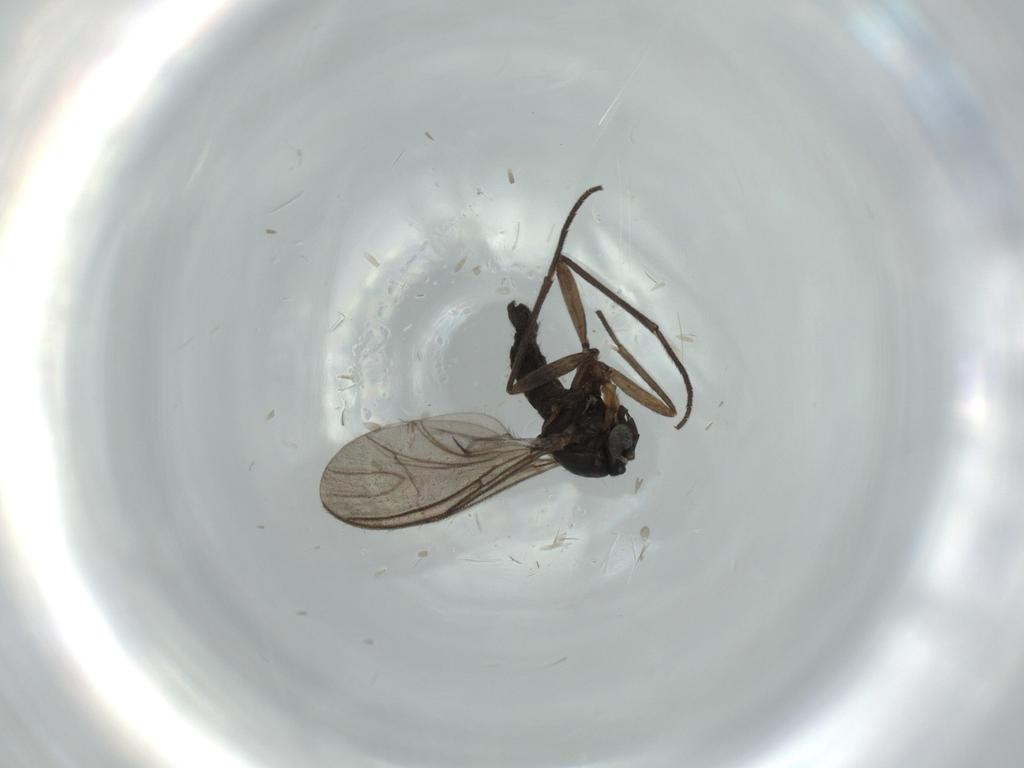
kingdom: Animalia
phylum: Arthropoda
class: Insecta
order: Diptera
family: Sciaridae
